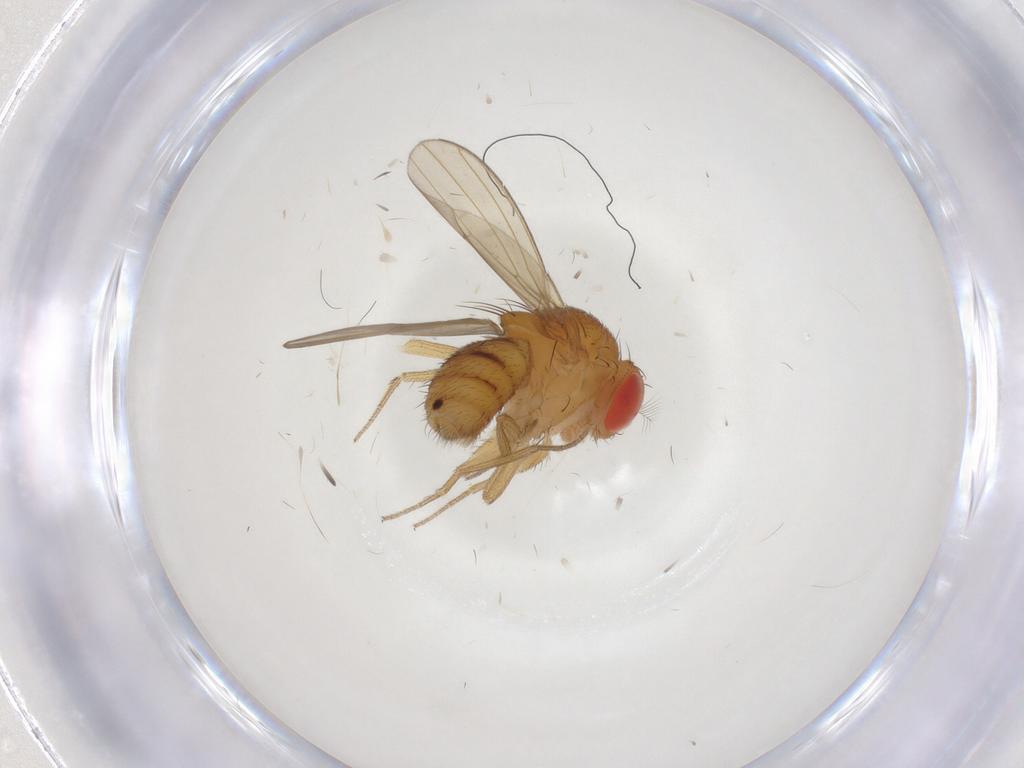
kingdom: Animalia
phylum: Arthropoda
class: Insecta
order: Diptera
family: Drosophilidae
